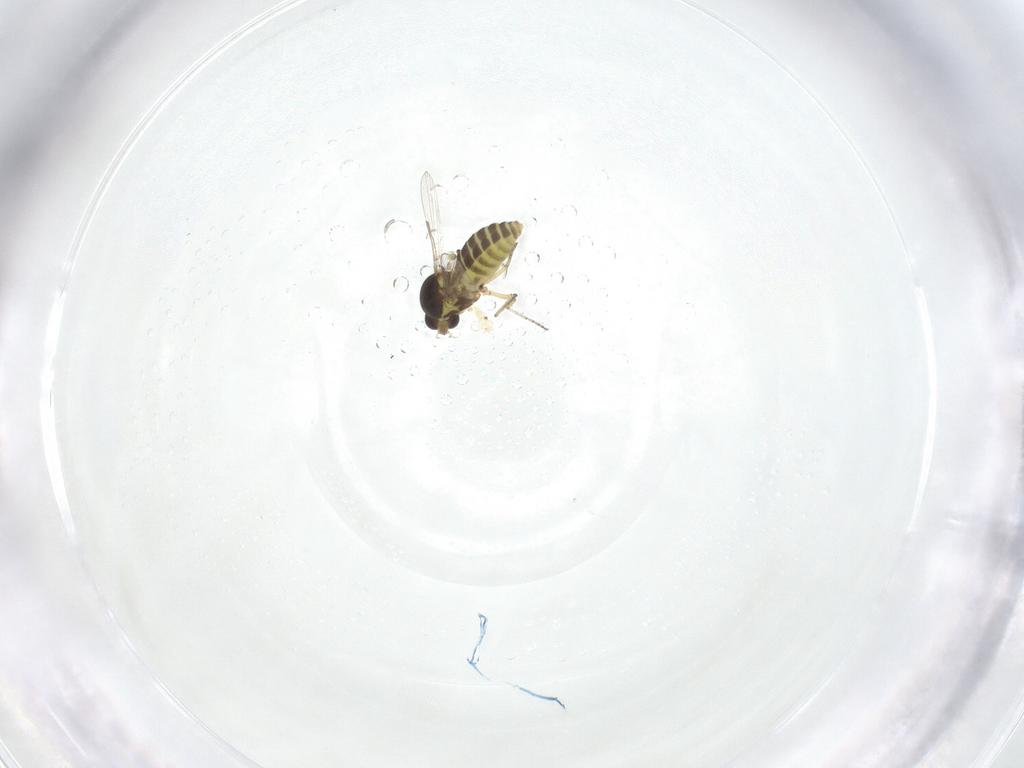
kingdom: Animalia
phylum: Arthropoda
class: Insecta
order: Diptera
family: Ceratopogonidae
